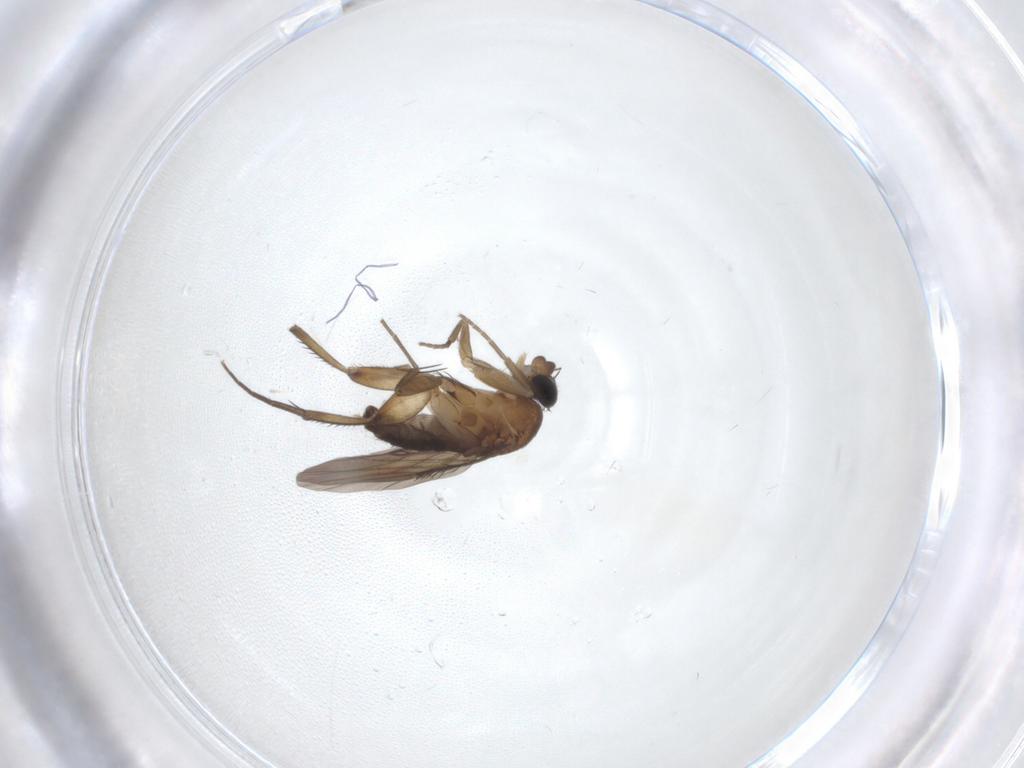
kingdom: Animalia
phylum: Arthropoda
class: Insecta
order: Diptera
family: Phoridae
